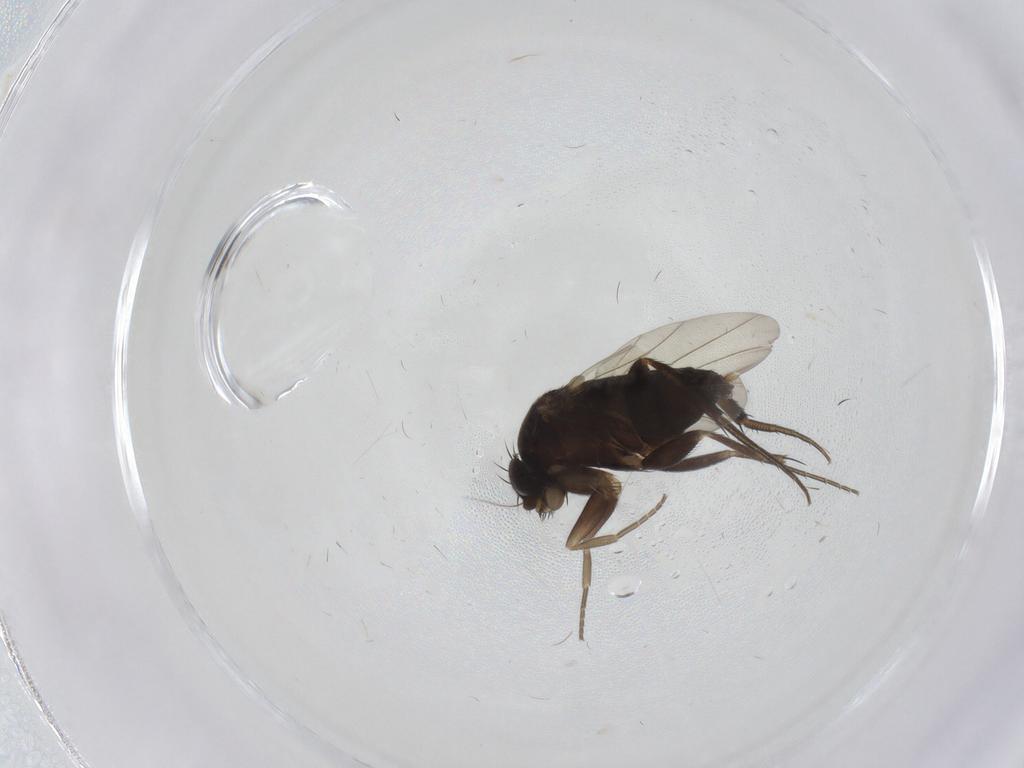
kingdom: Animalia
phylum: Arthropoda
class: Insecta
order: Diptera
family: Phoridae
